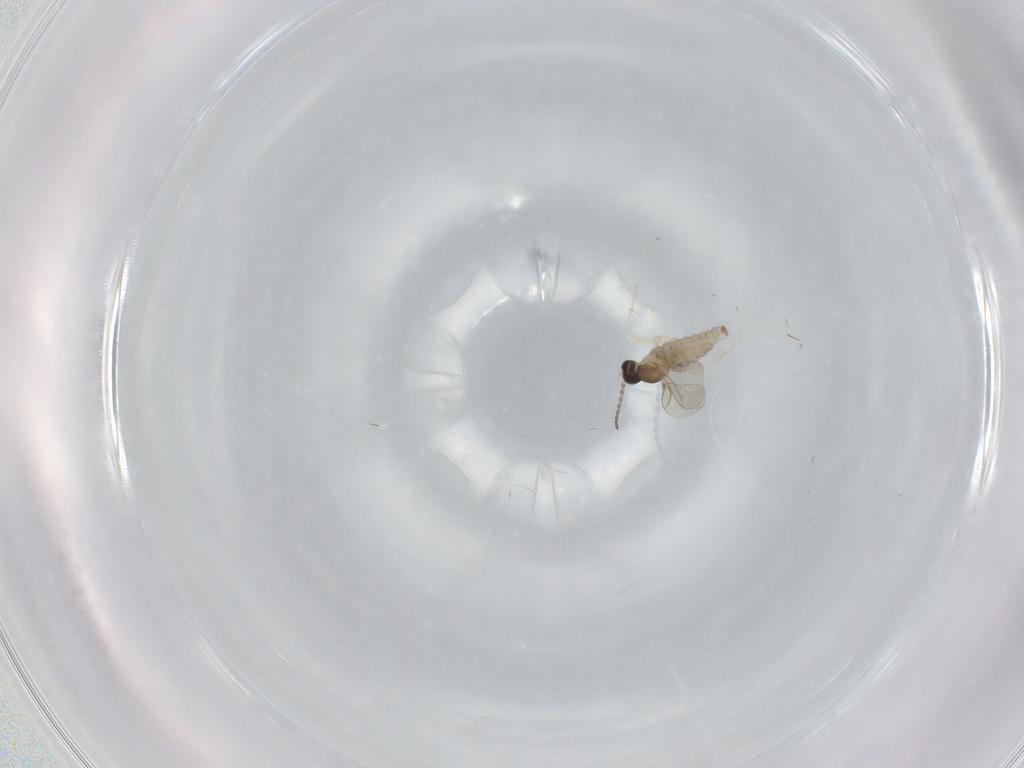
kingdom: Animalia
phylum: Arthropoda
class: Insecta
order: Diptera
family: Cecidomyiidae
